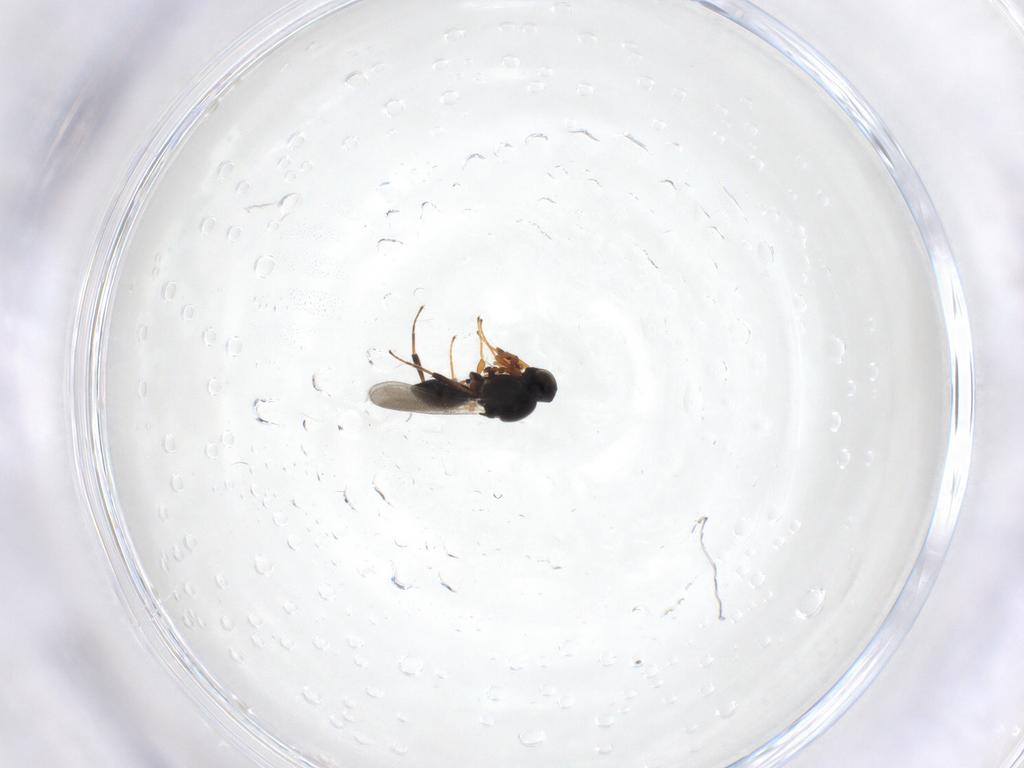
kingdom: Animalia
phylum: Arthropoda
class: Insecta
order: Hymenoptera
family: Platygastridae
